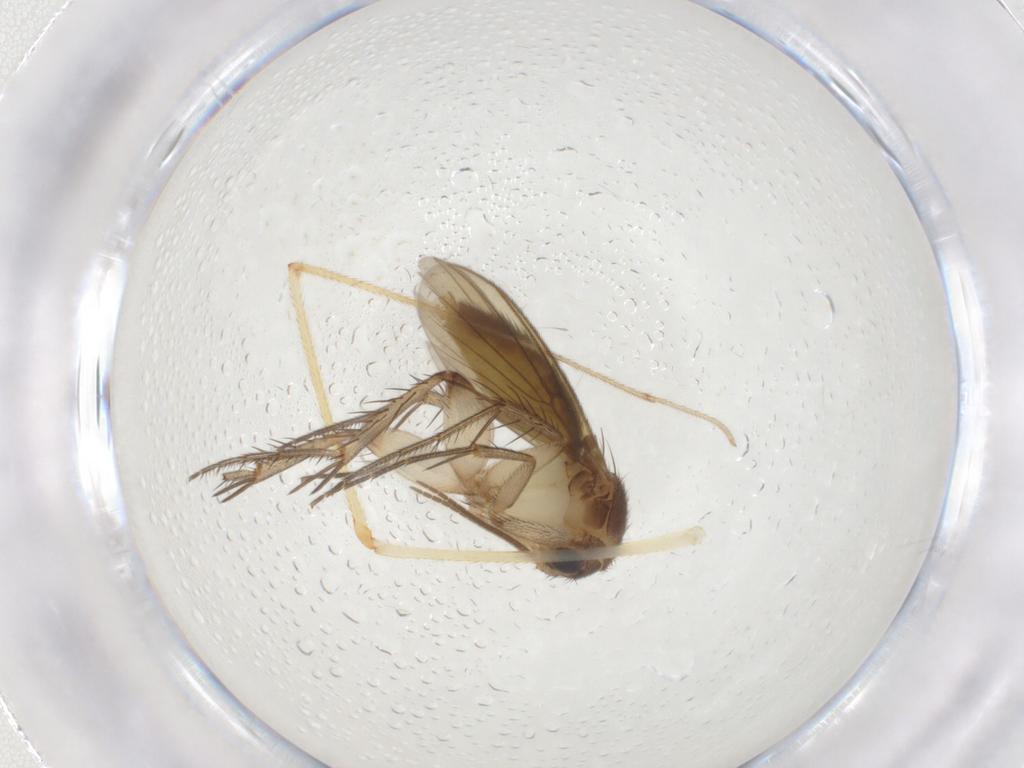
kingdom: Animalia
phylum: Arthropoda
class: Insecta
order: Diptera
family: Mycetophilidae
